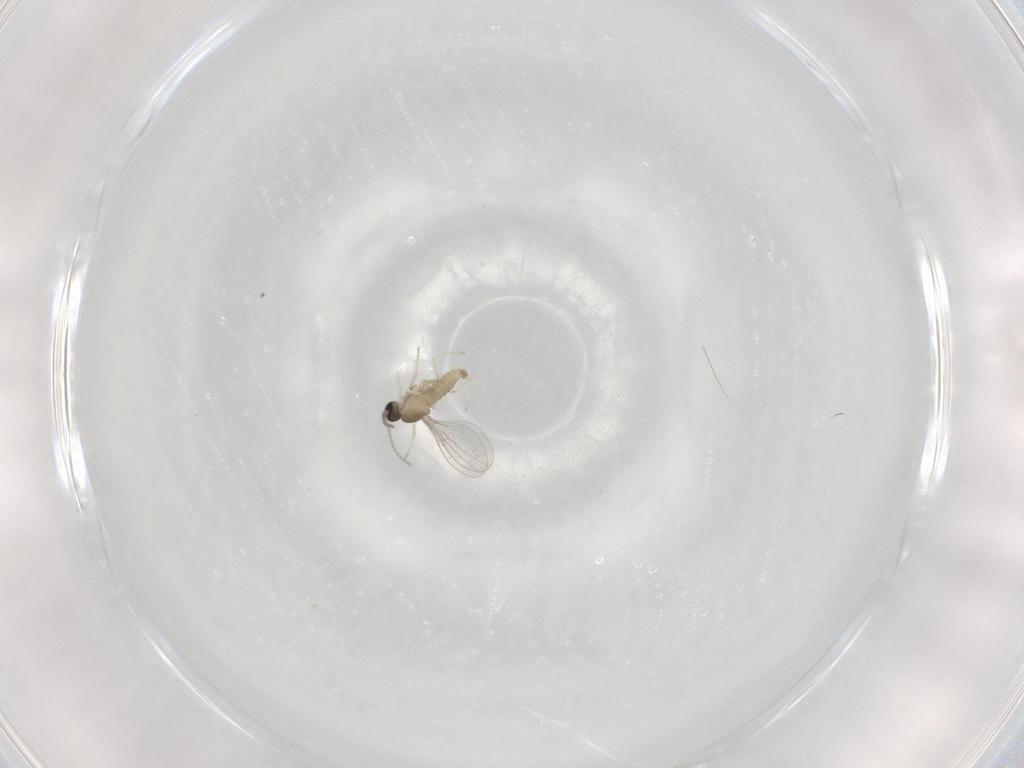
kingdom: Animalia
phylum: Arthropoda
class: Insecta
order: Diptera
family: Cecidomyiidae
